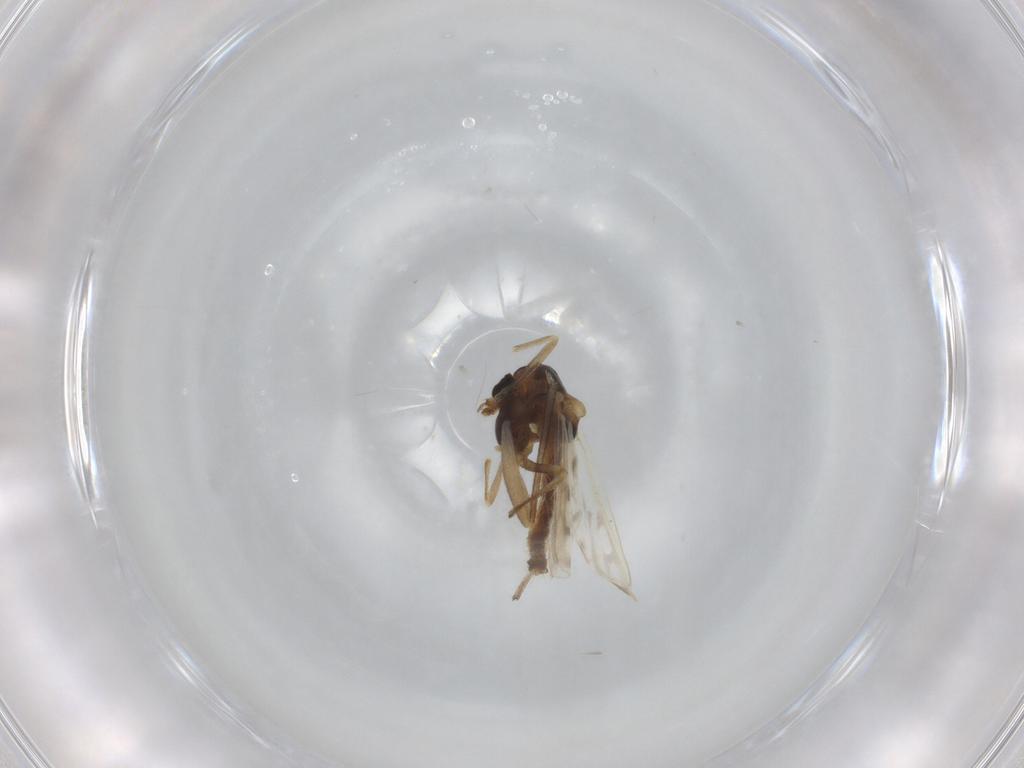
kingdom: Animalia
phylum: Arthropoda
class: Insecta
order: Diptera
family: Chironomidae
